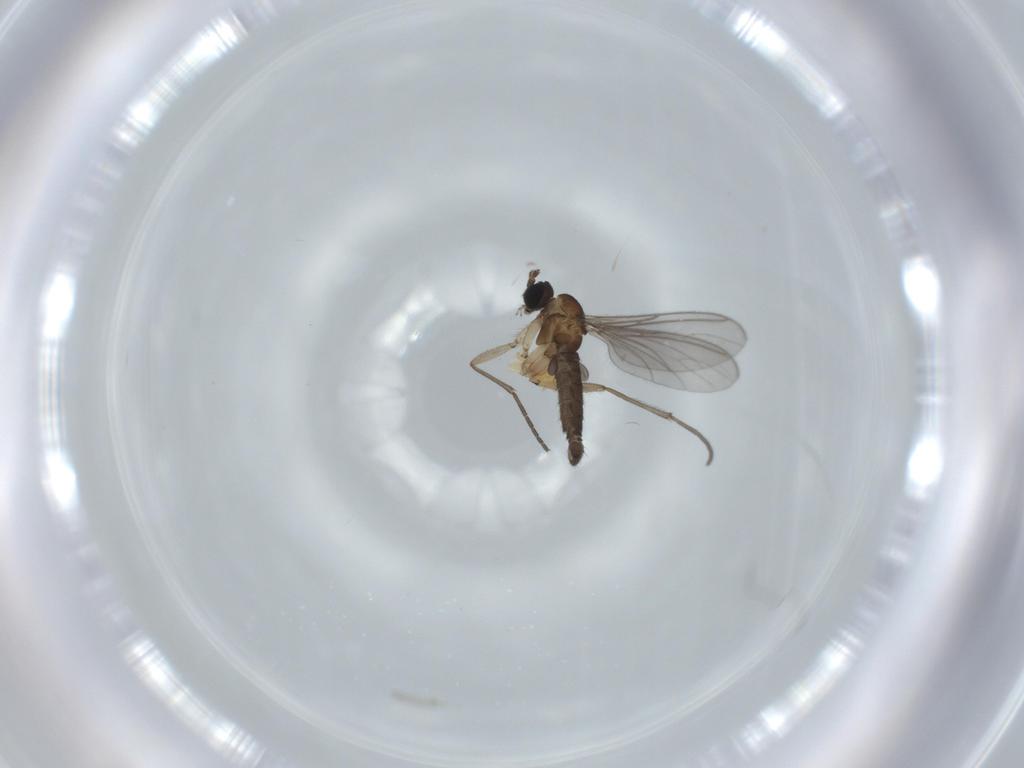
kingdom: Animalia
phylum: Arthropoda
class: Insecta
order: Diptera
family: Sciaridae
